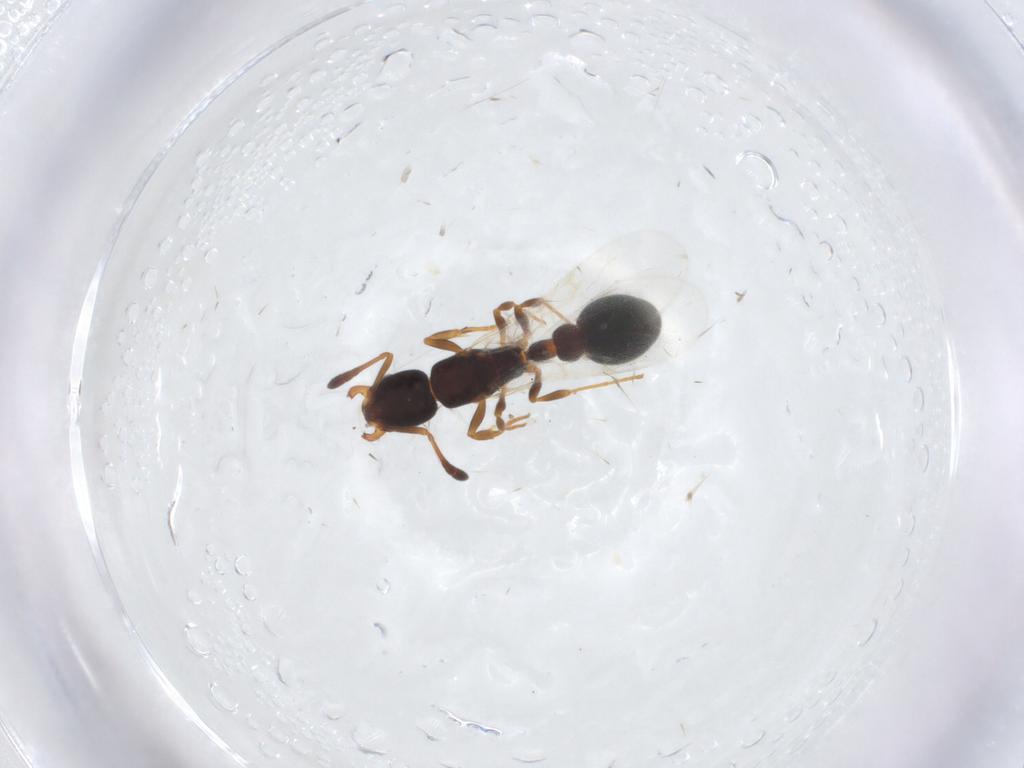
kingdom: Animalia
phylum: Arthropoda
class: Insecta
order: Hymenoptera
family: Formicidae
